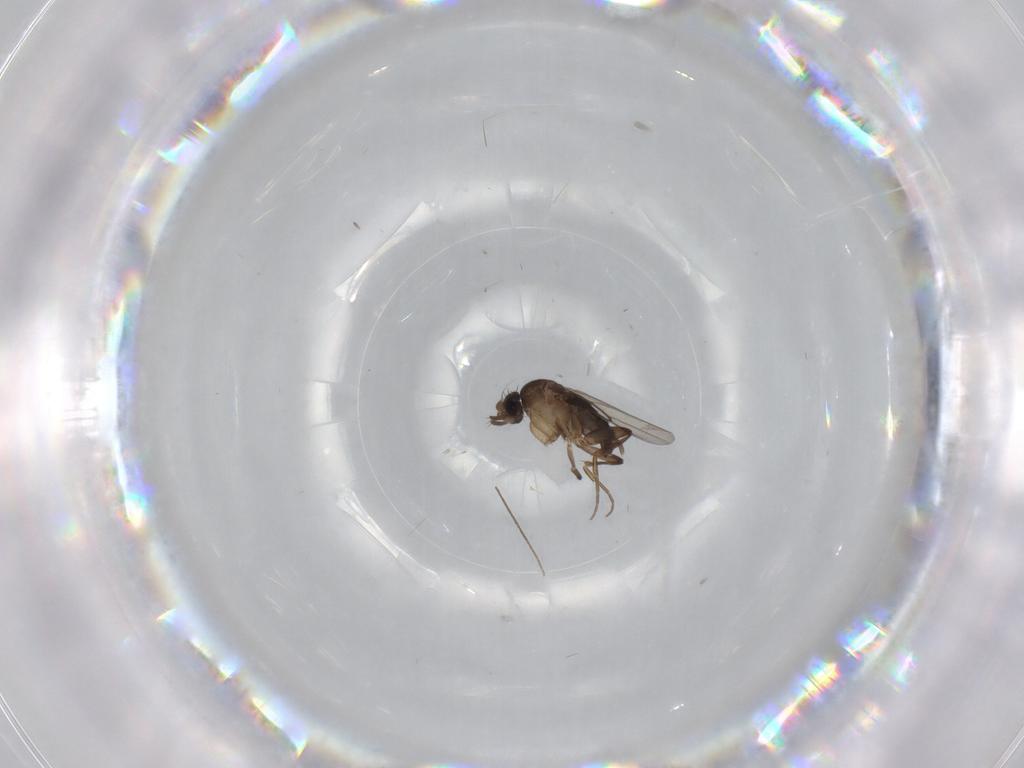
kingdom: Animalia
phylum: Arthropoda
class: Insecta
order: Diptera
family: Phoridae
